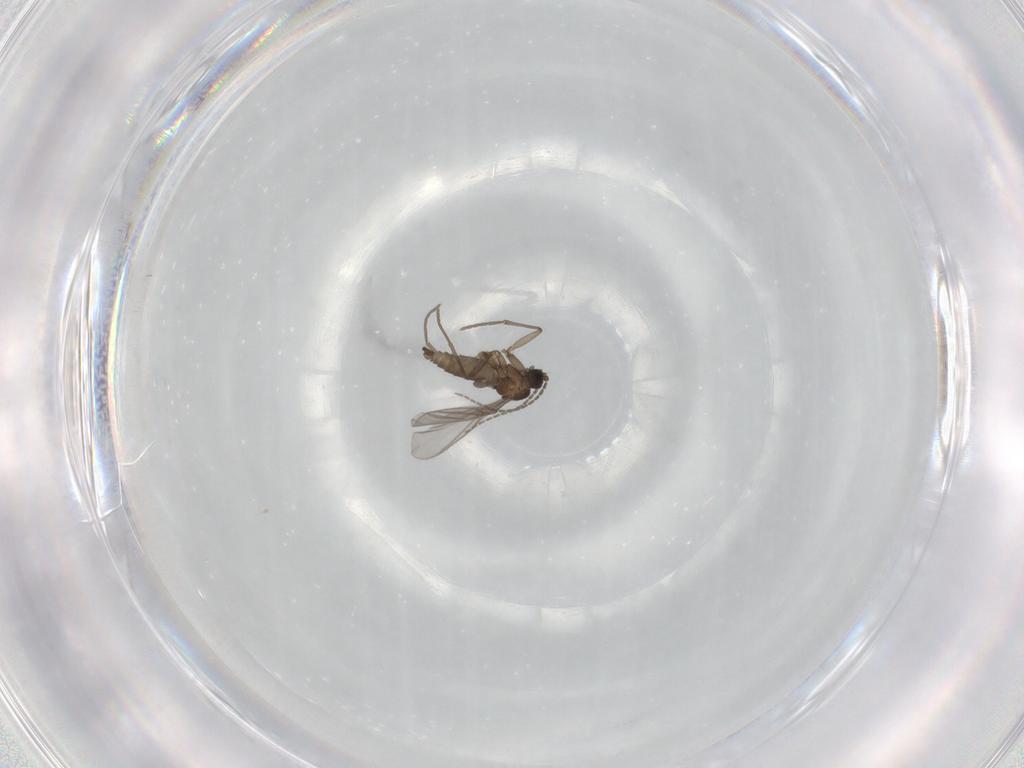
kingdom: Animalia
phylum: Arthropoda
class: Insecta
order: Diptera
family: Sciaridae
